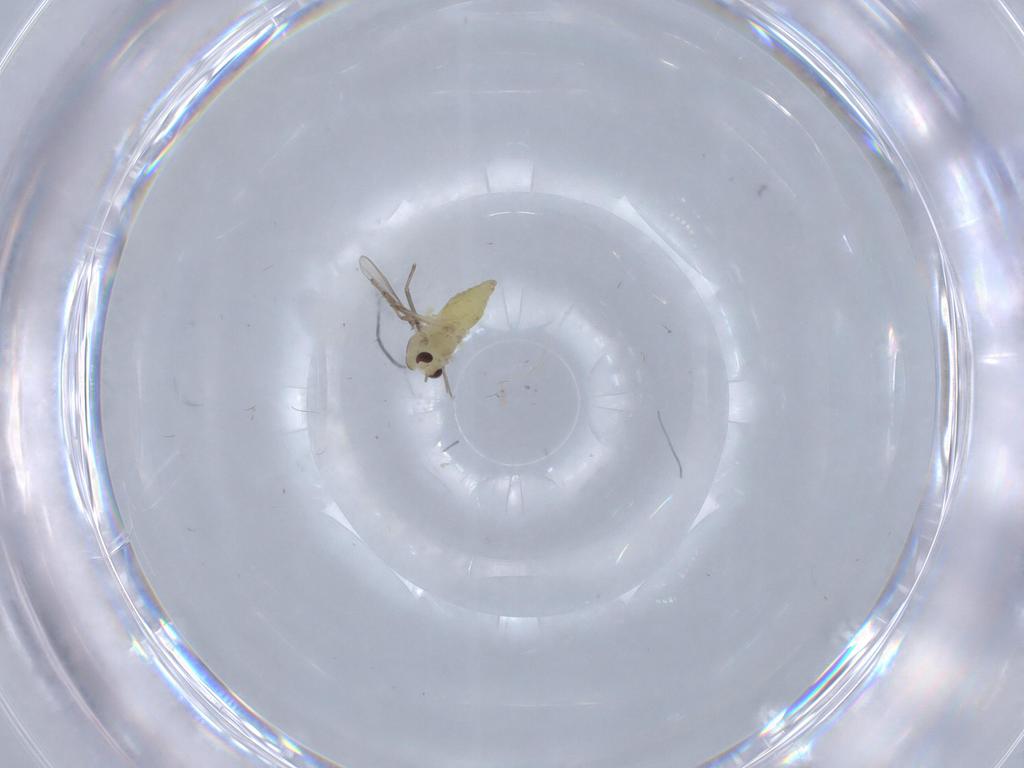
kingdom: Animalia
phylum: Arthropoda
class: Insecta
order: Diptera
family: Chironomidae
